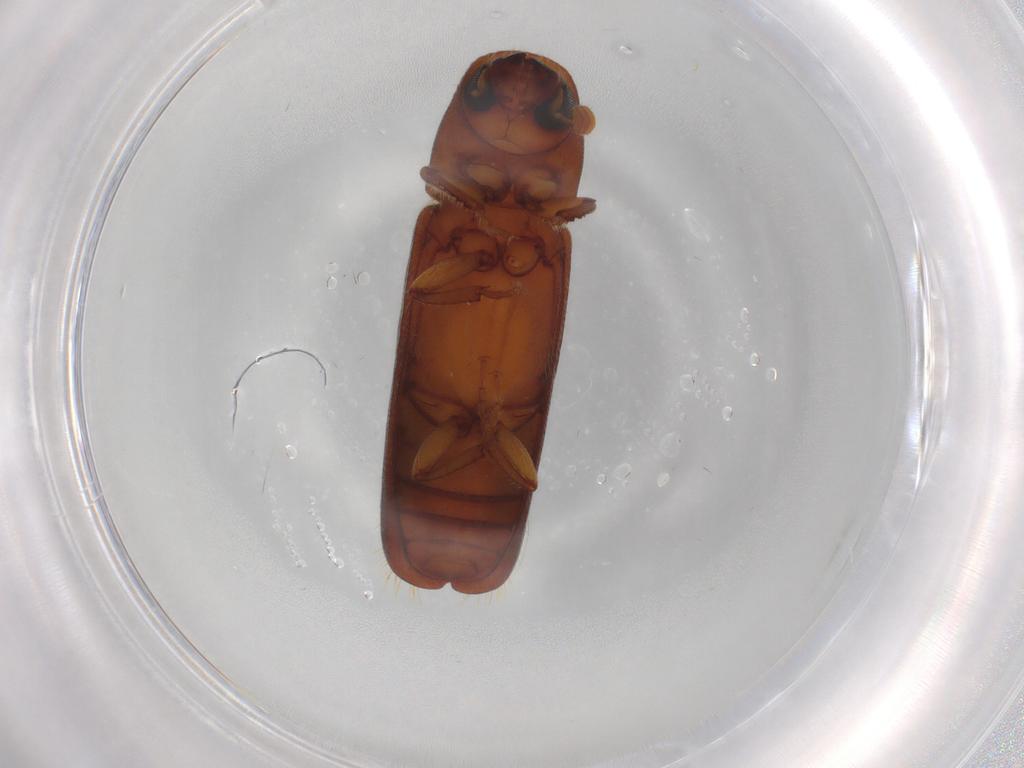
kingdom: Animalia
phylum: Arthropoda
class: Insecta
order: Coleoptera
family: Curculionidae
